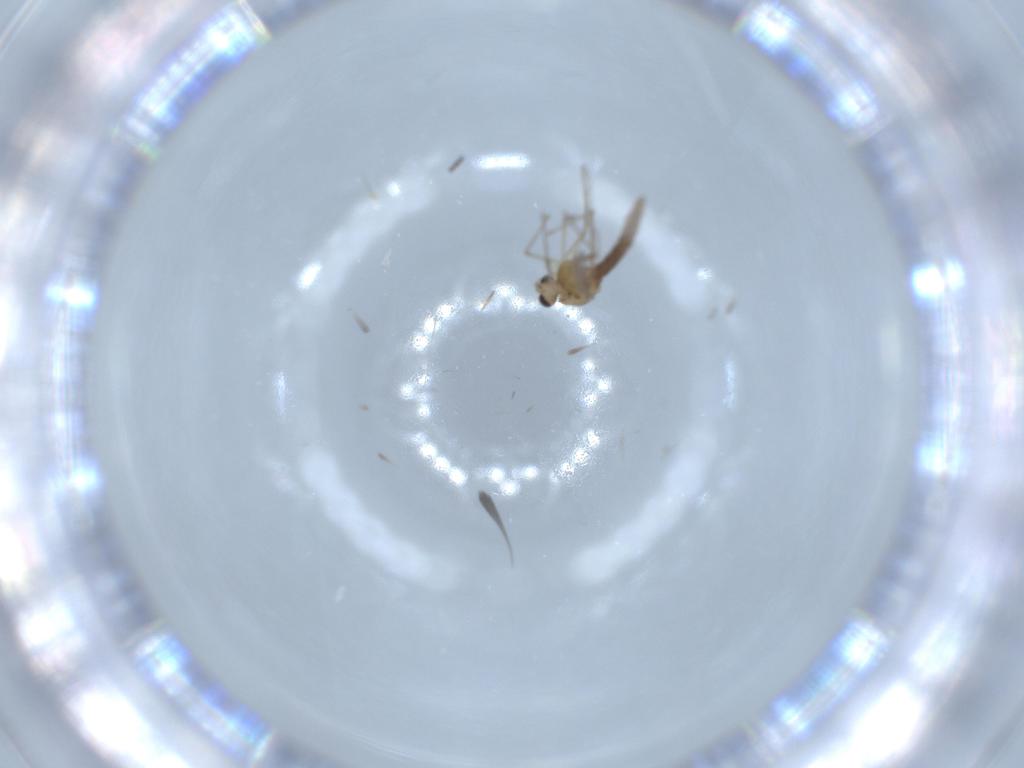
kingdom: Animalia
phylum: Arthropoda
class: Insecta
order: Diptera
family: Chironomidae
